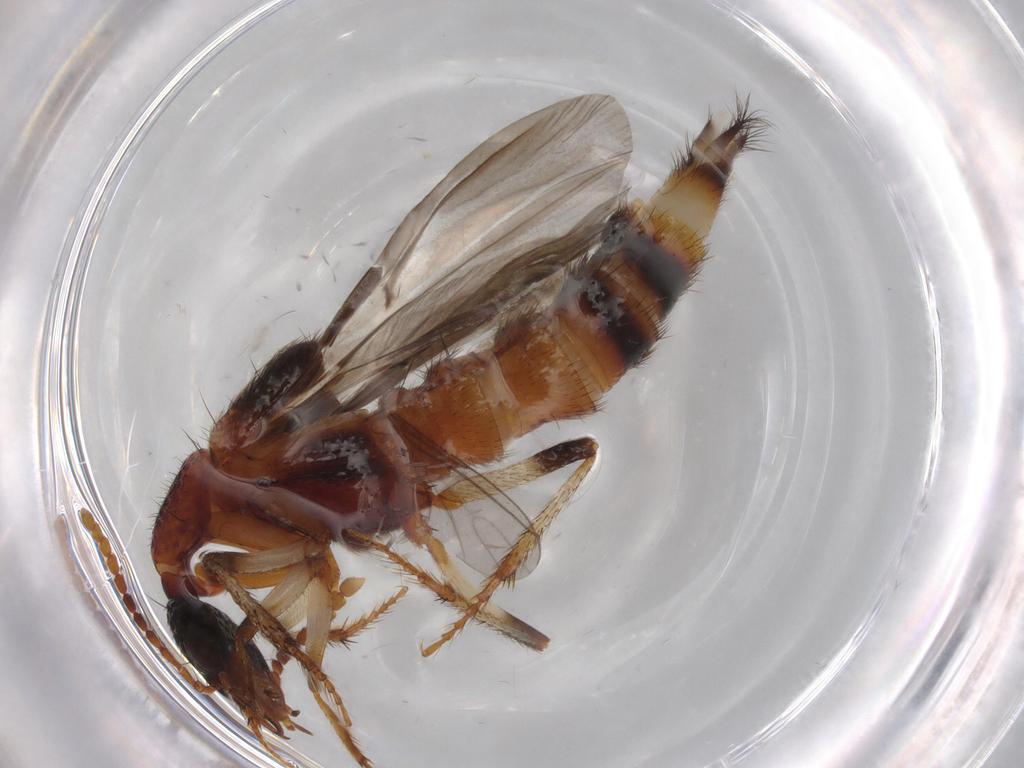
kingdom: Animalia
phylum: Arthropoda
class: Insecta
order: Coleoptera
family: Staphylinidae
